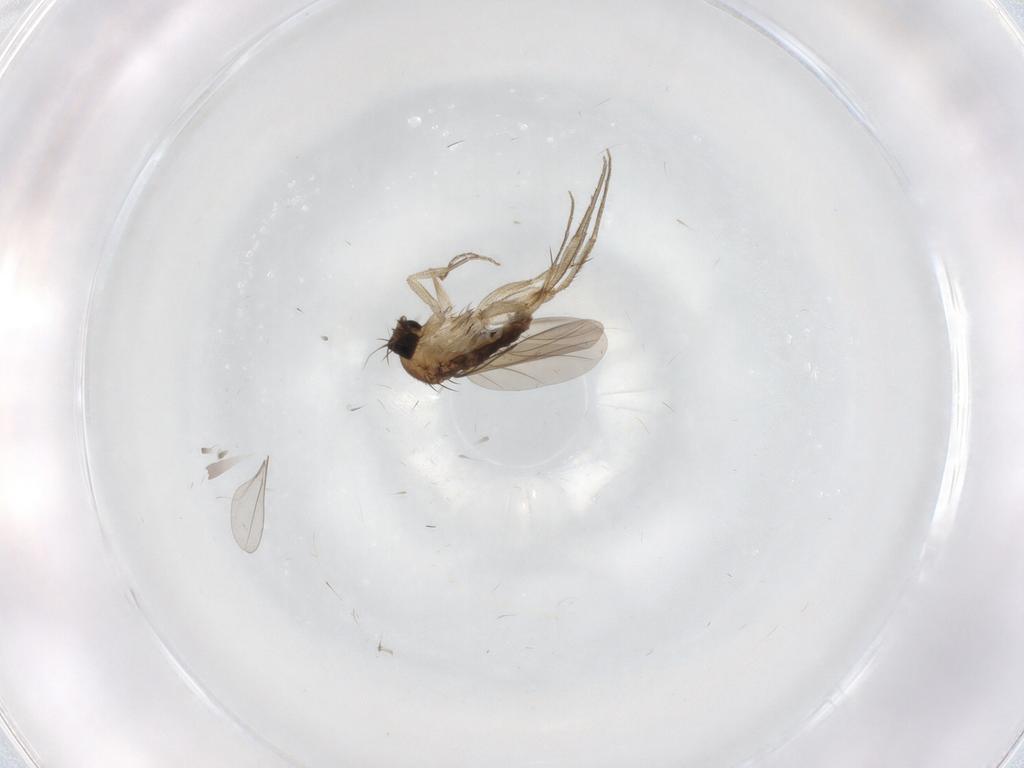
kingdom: Animalia
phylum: Arthropoda
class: Insecta
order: Diptera
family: Phoridae
